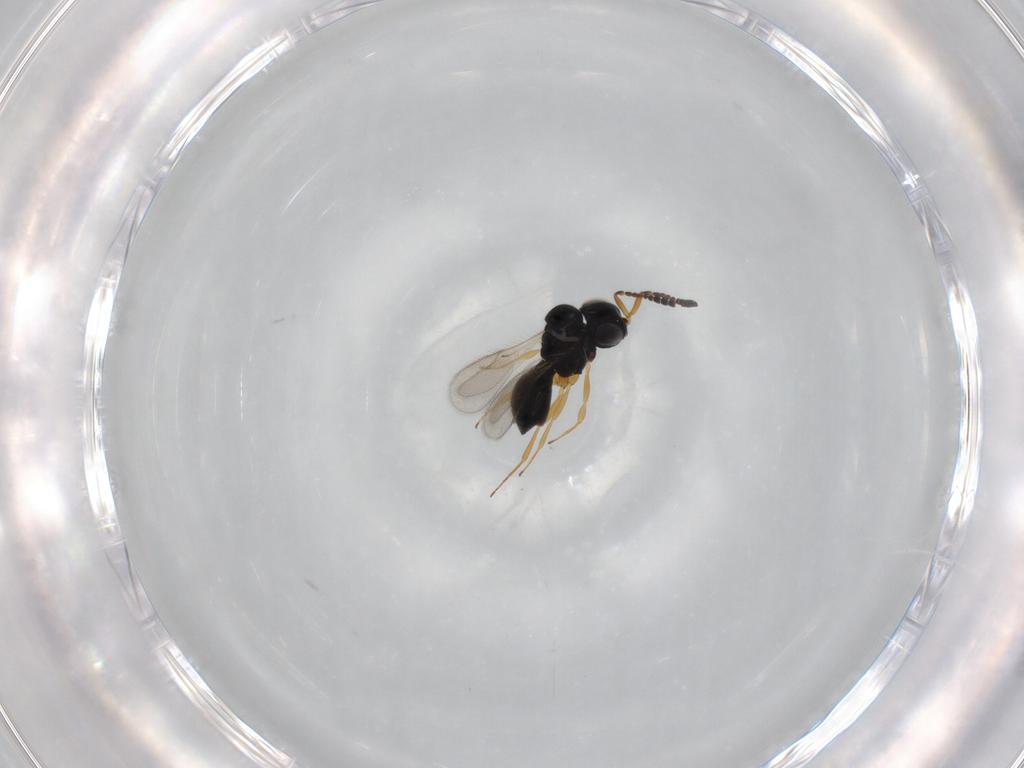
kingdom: Animalia
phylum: Arthropoda
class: Insecta
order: Hymenoptera
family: Scelionidae
